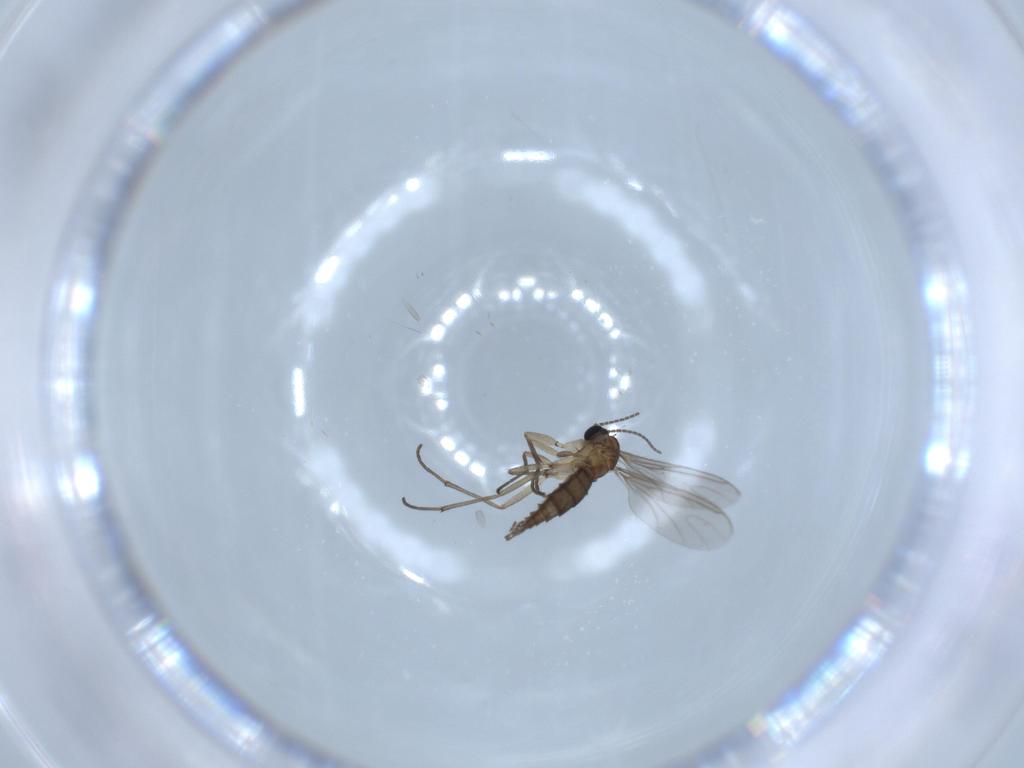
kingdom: Animalia
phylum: Arthropoda
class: Insecta
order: Diptera
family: Sciaridae
